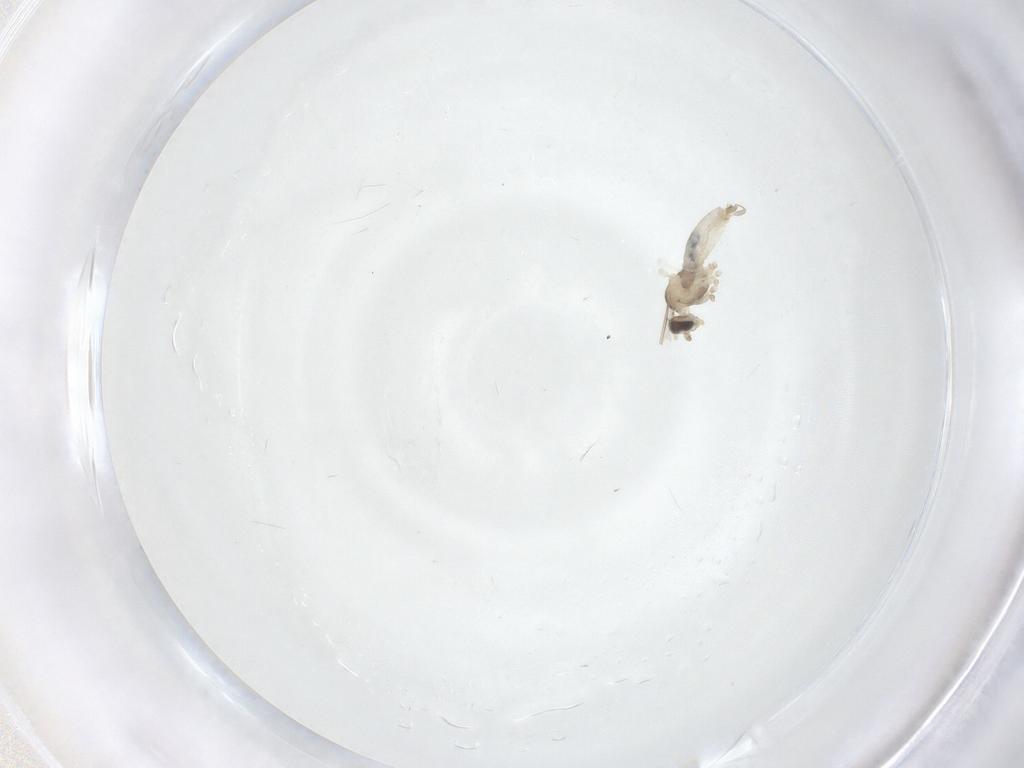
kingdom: Animalia
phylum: Arthropoda
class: Insecta
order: Diptera
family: Cecidomyiidae
